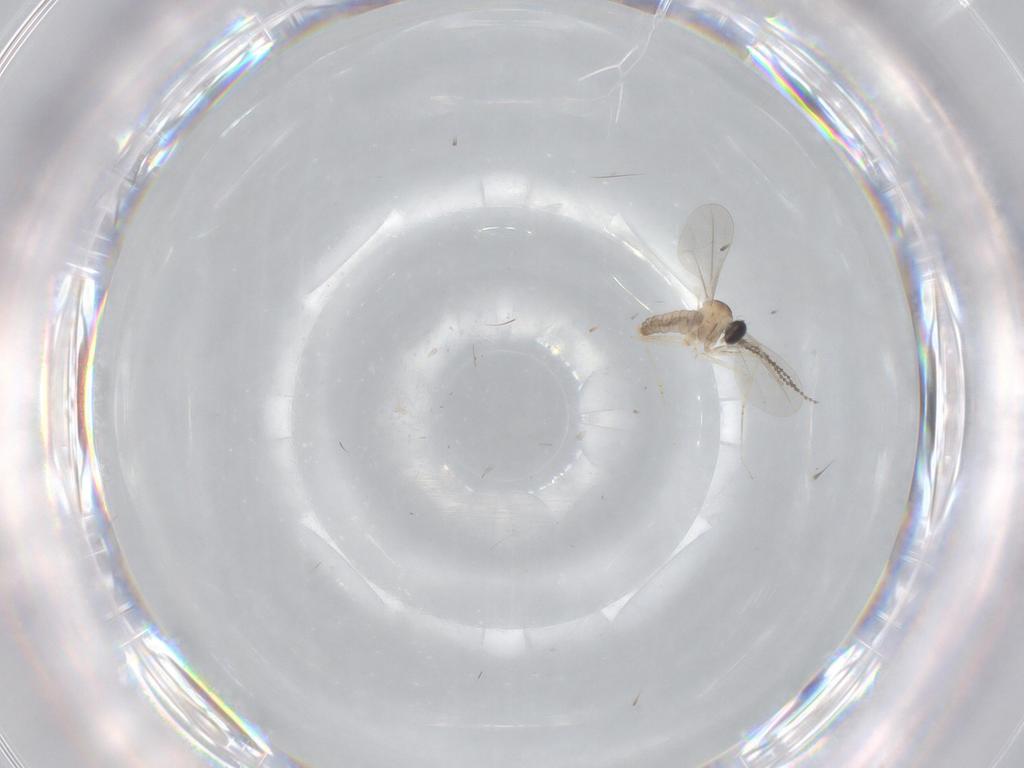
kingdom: Animalia
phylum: Arthropoda
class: Insecta
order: Diptera
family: Cecidomyiidae
